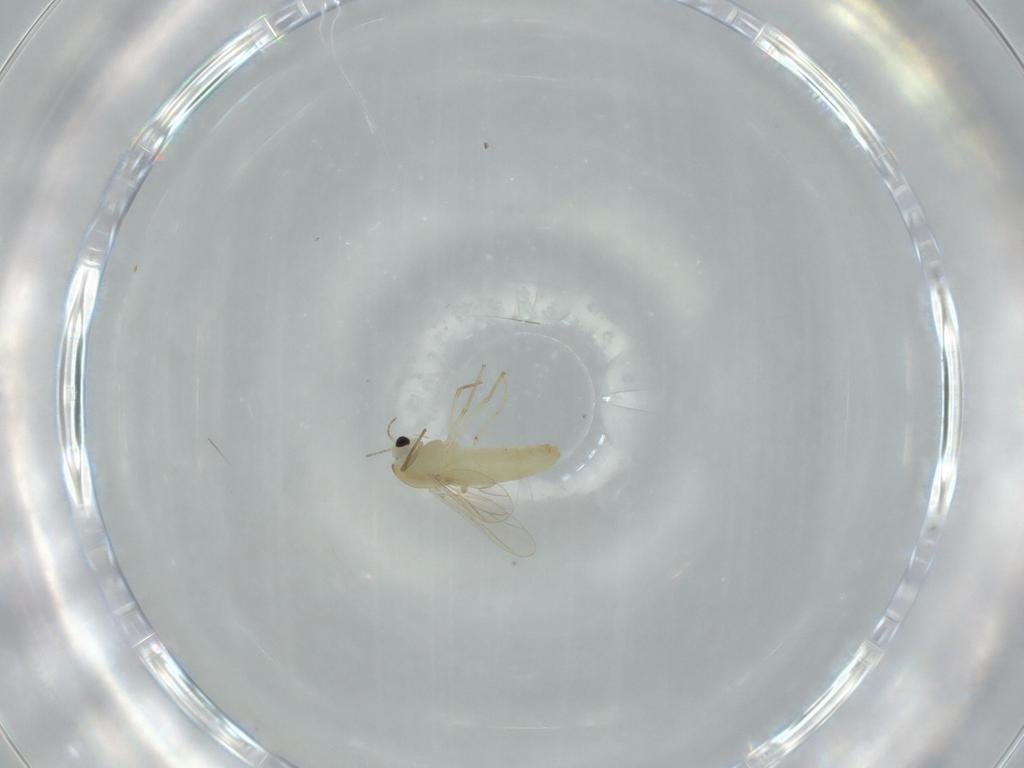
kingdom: Animalia
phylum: Arthropoda
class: Insecta
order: Diptera
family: Chironomidae
